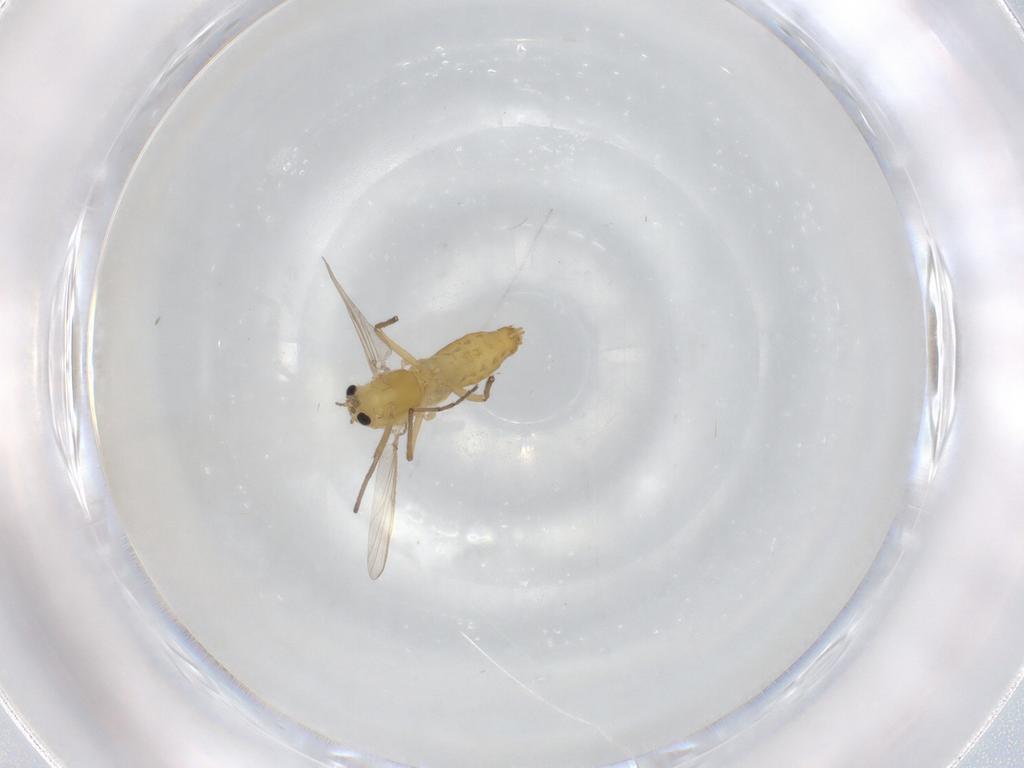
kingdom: Animalia
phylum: Arthropoda
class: Insecta
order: Diptera
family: Chironomidae
